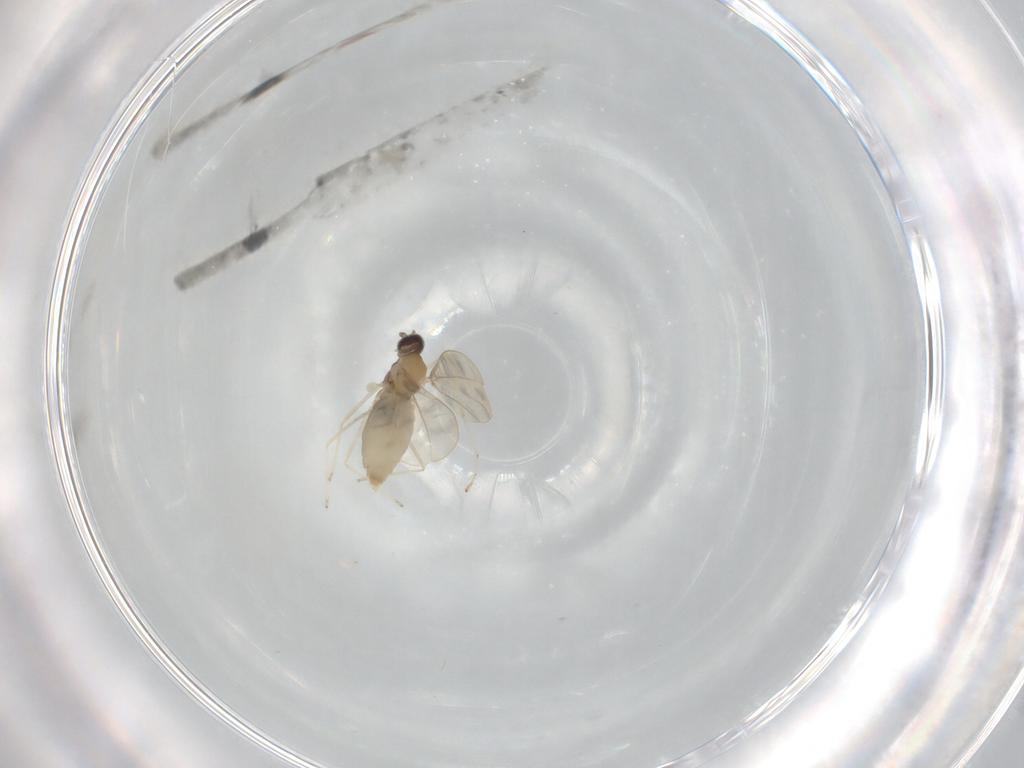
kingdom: Animalia
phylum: Arthropoda
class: Insecta
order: Diptera
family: Cecidomyiidae
